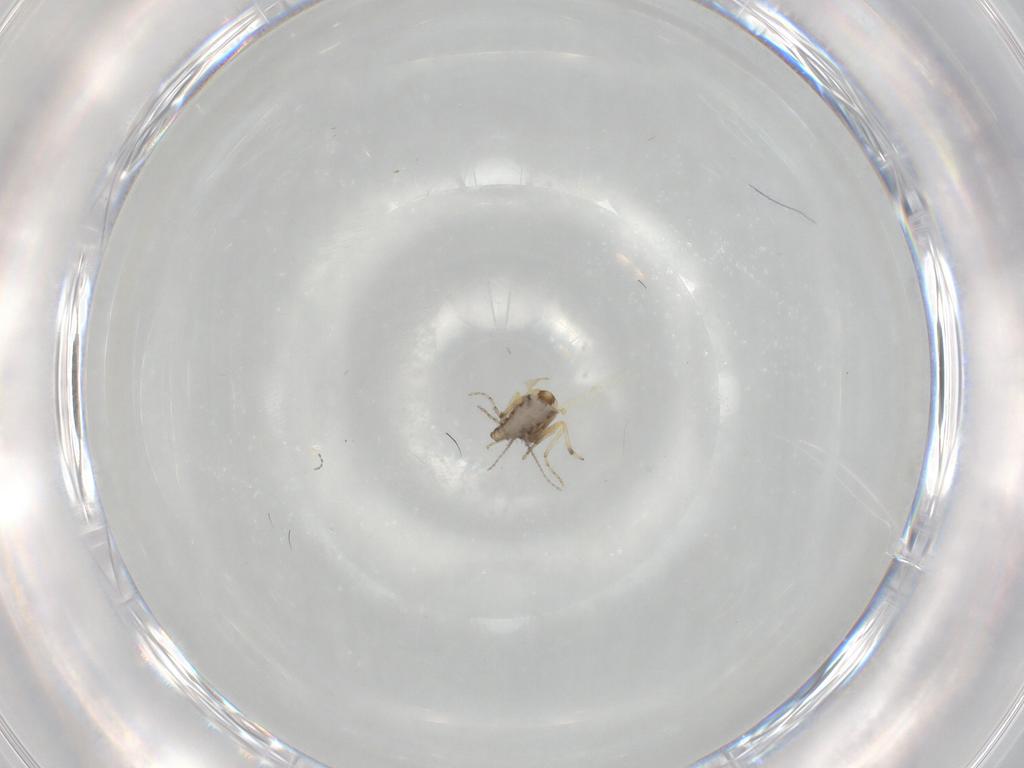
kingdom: Animalia
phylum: Arthropoda
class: Insecta
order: Diptera
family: Ceratopogonidae
